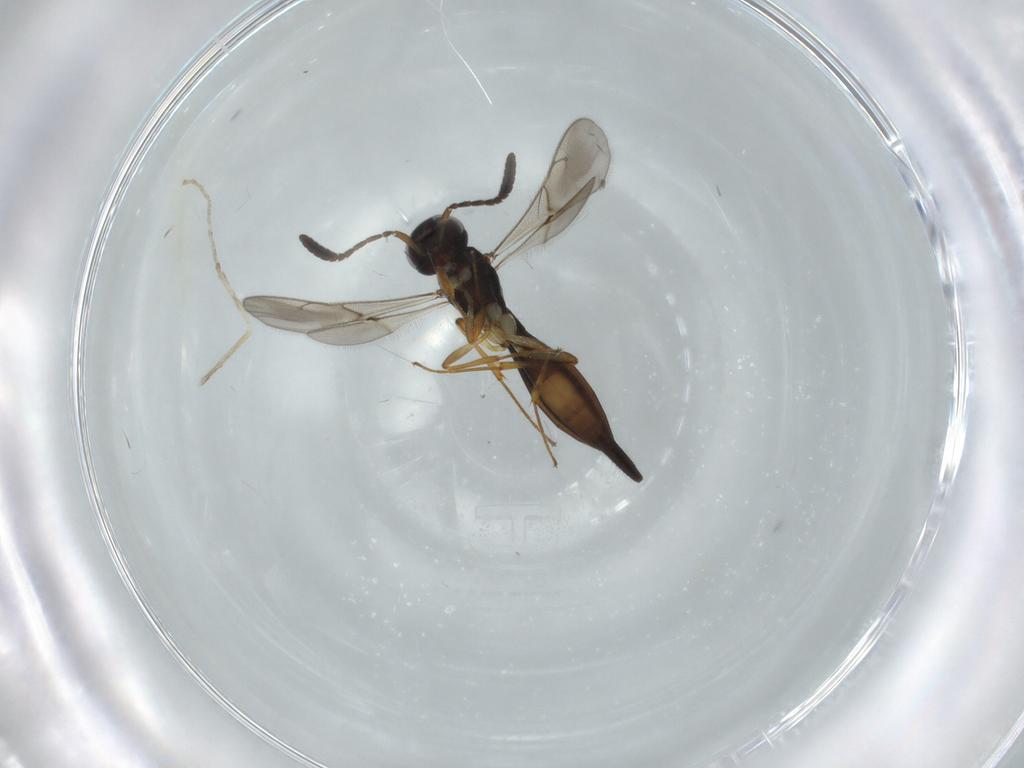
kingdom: Animalia
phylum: Arthropoda
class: Insecta
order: Hymenoptera
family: Scelionidae
